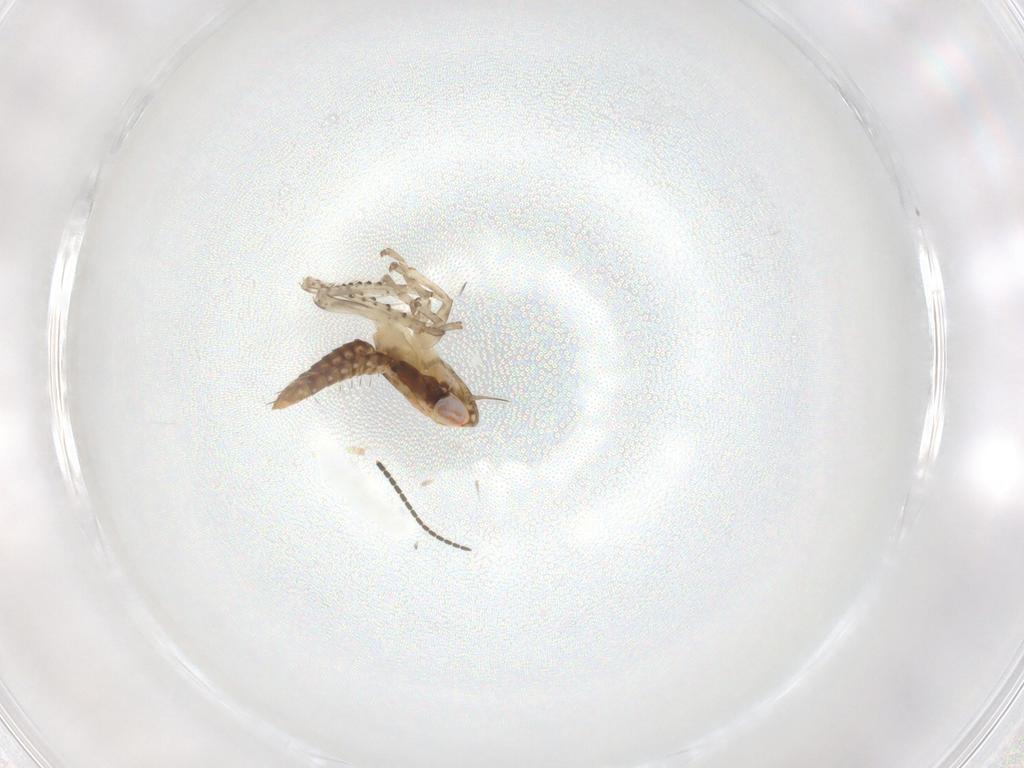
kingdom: Animalia
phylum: Arthropoda
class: Insecta
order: Hemiptera
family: Cicadellidae
